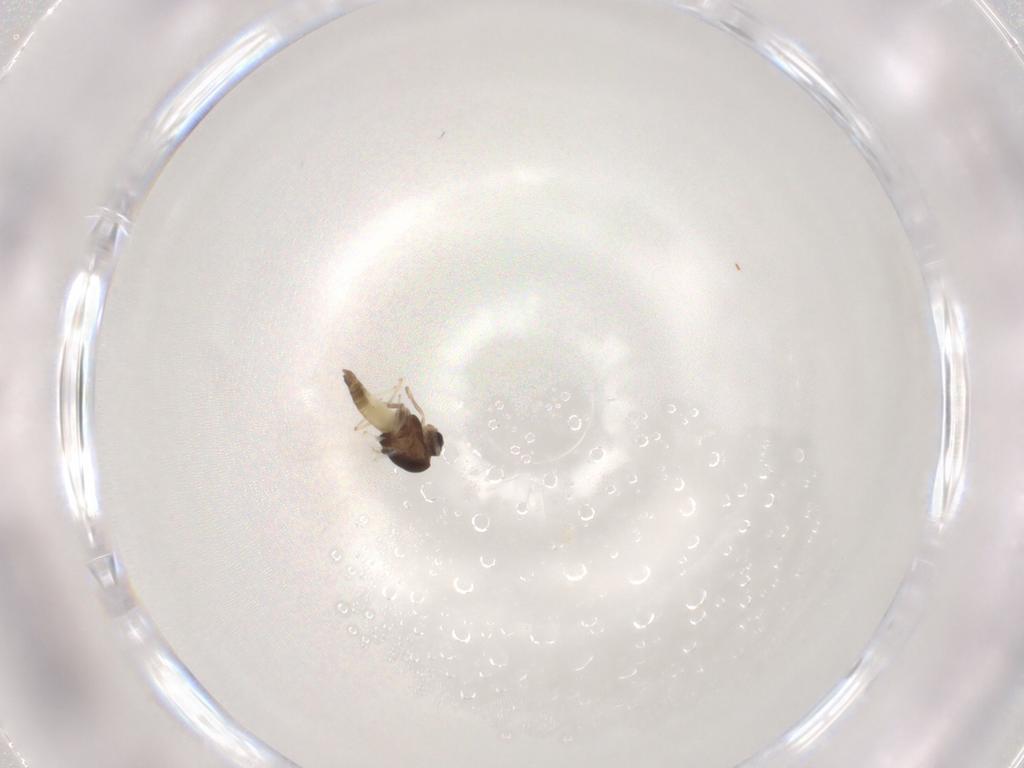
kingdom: Animalia
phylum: Arthropoda
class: Insecta
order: Diptera
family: Chironomidae
